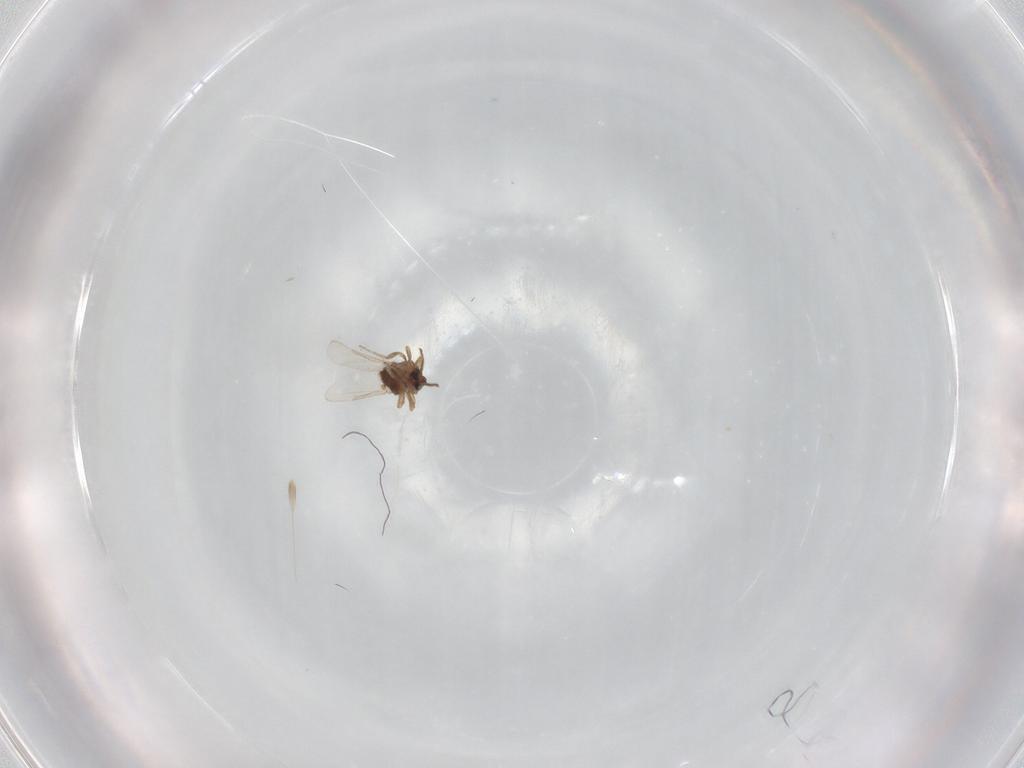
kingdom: Animalia
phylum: Arthropoda
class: Insecta
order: Diptera
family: Ceratopogonidae
